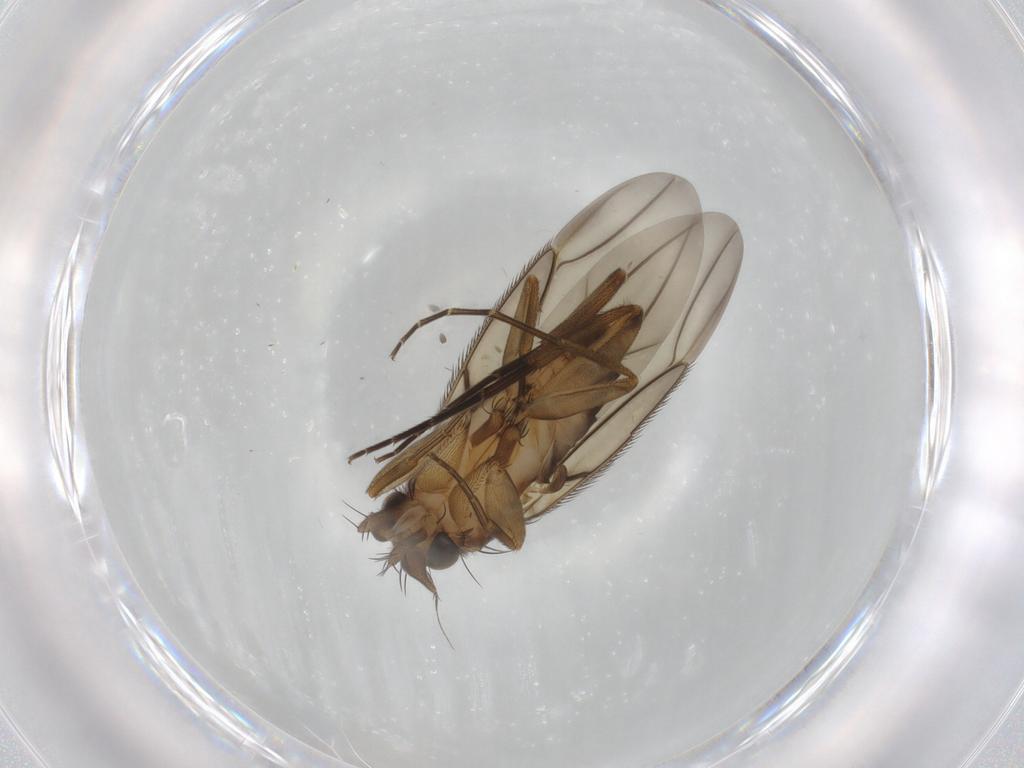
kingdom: Animalia
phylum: Arthropoda
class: Insecta
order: Diptera
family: Phoridae
